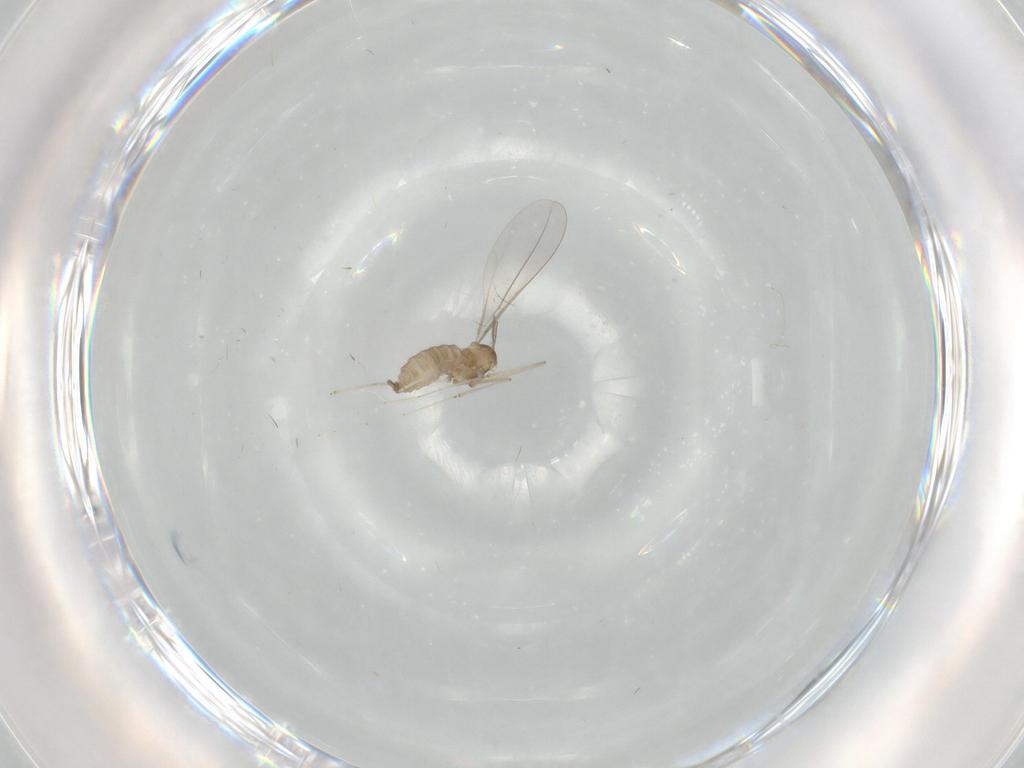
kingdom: Animalia
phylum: Arthropoda
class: Insecta
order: Diptera
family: Cecidomyiidae
